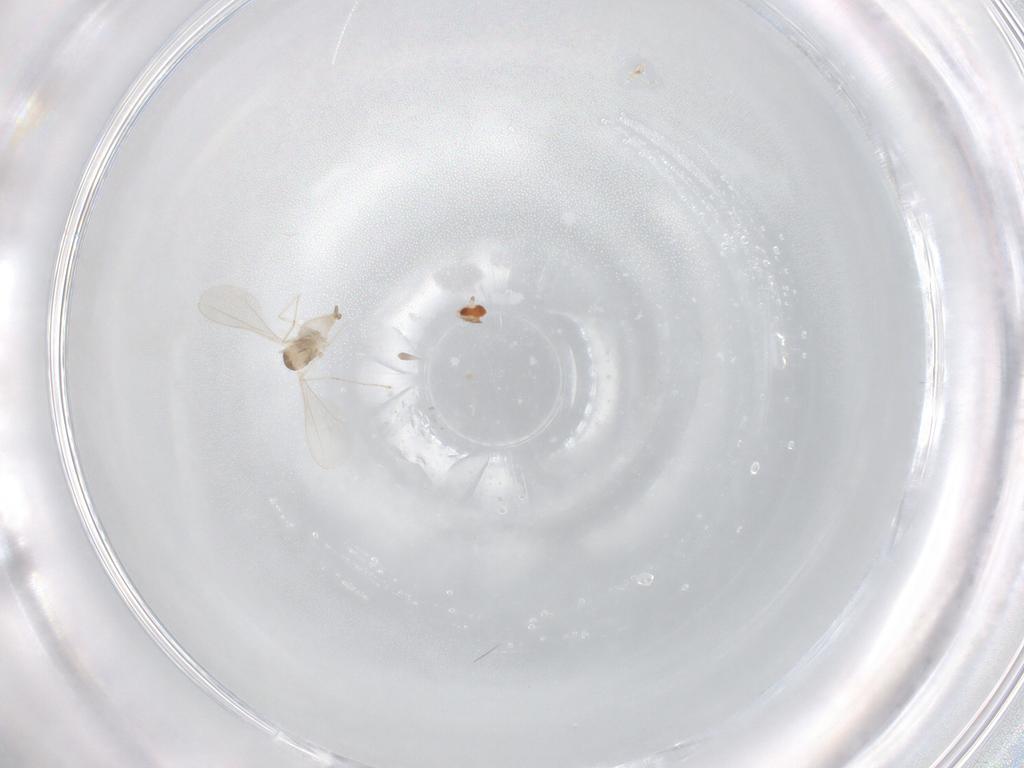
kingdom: Animalia
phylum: Arthropoda
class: Insecta
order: Diptera
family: Cecidomyiidae
